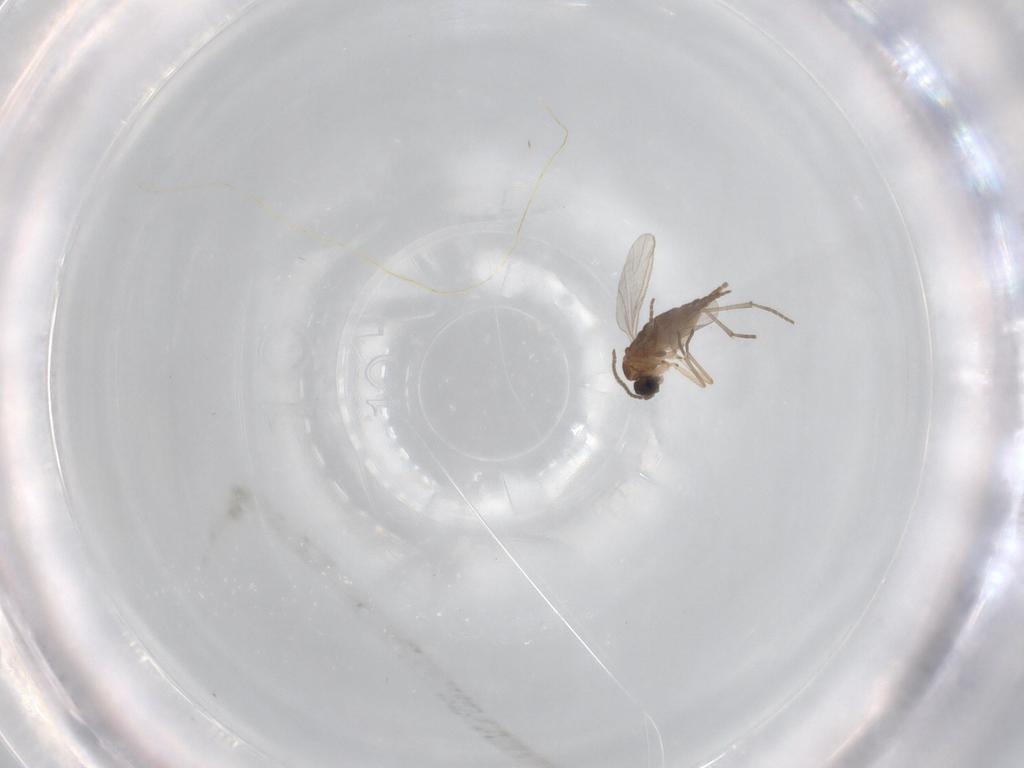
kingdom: Animalia
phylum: Arthropoda
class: Insecta
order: Diptera
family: Sciaridae
